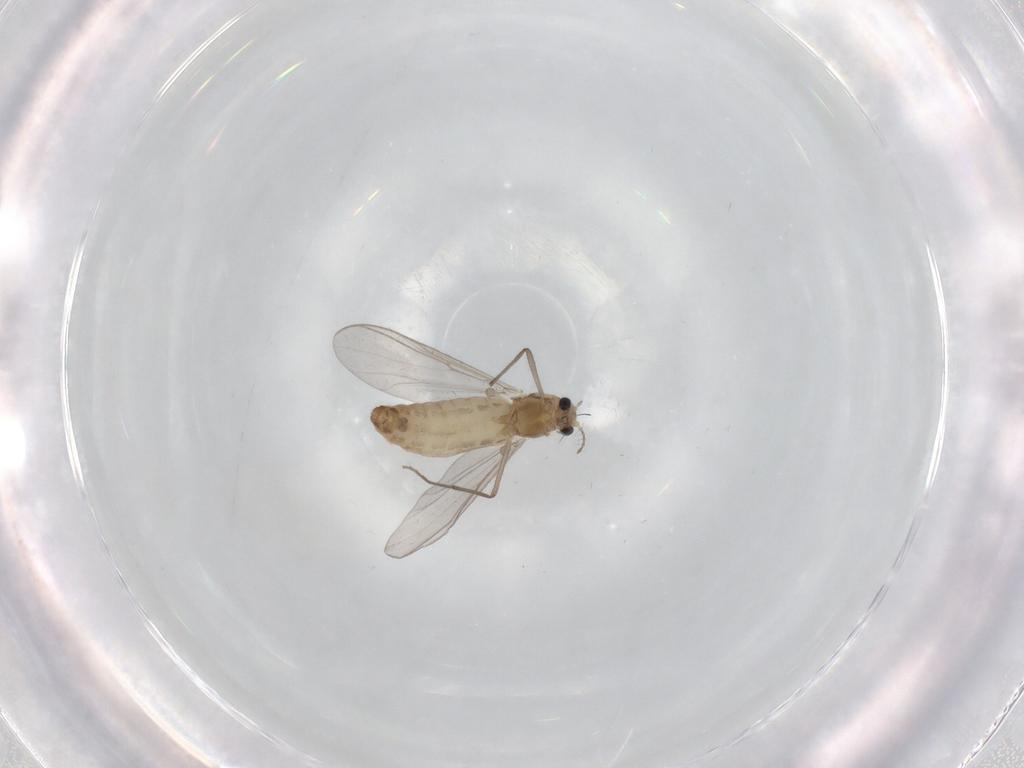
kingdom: Animalia
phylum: Arthropoda
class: Insecta
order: Diptera
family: Chironomidae
